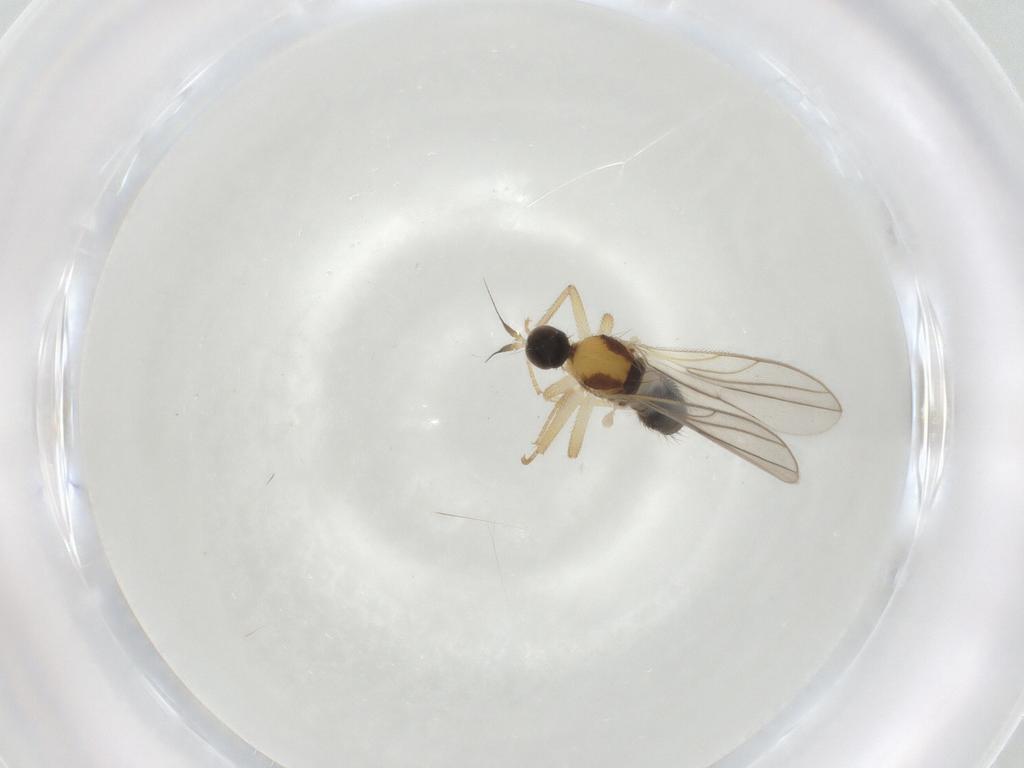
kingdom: Animalia
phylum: Arthropoda
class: Insecta
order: Diptera
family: Hybotidae
